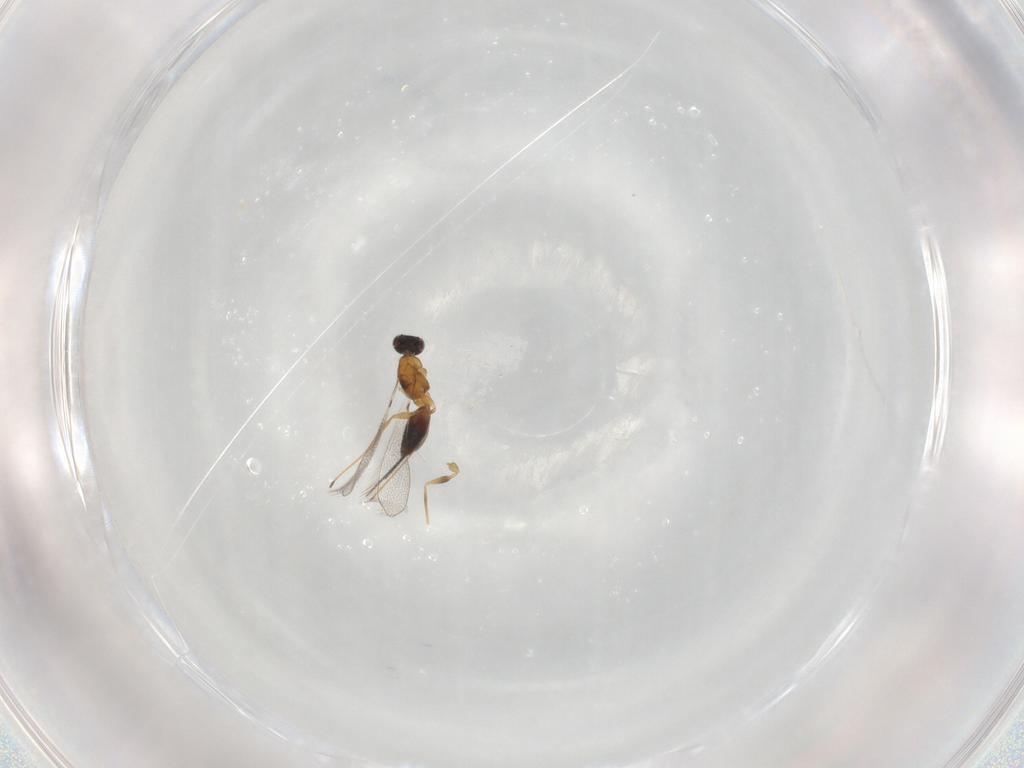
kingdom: Animalia
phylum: Arthropoda
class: Insecta
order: Hymenoptera
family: Mymaridae
